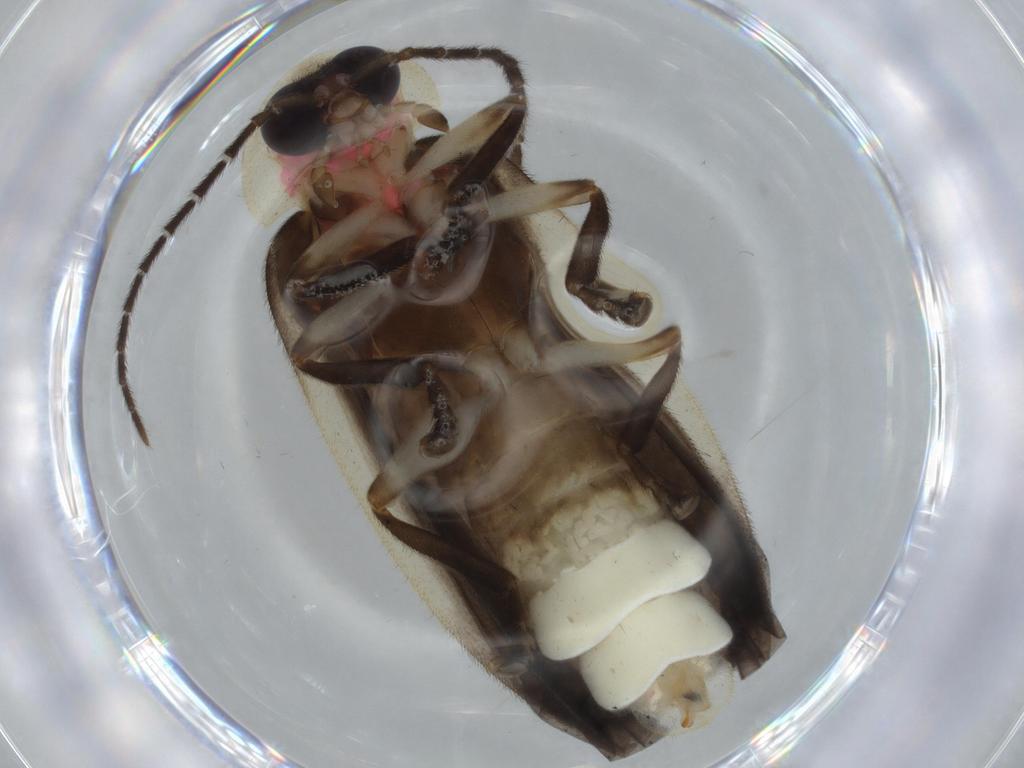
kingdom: Animalia
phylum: Arthropoda
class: Insecta
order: Coleoptera
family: Lampyridae
